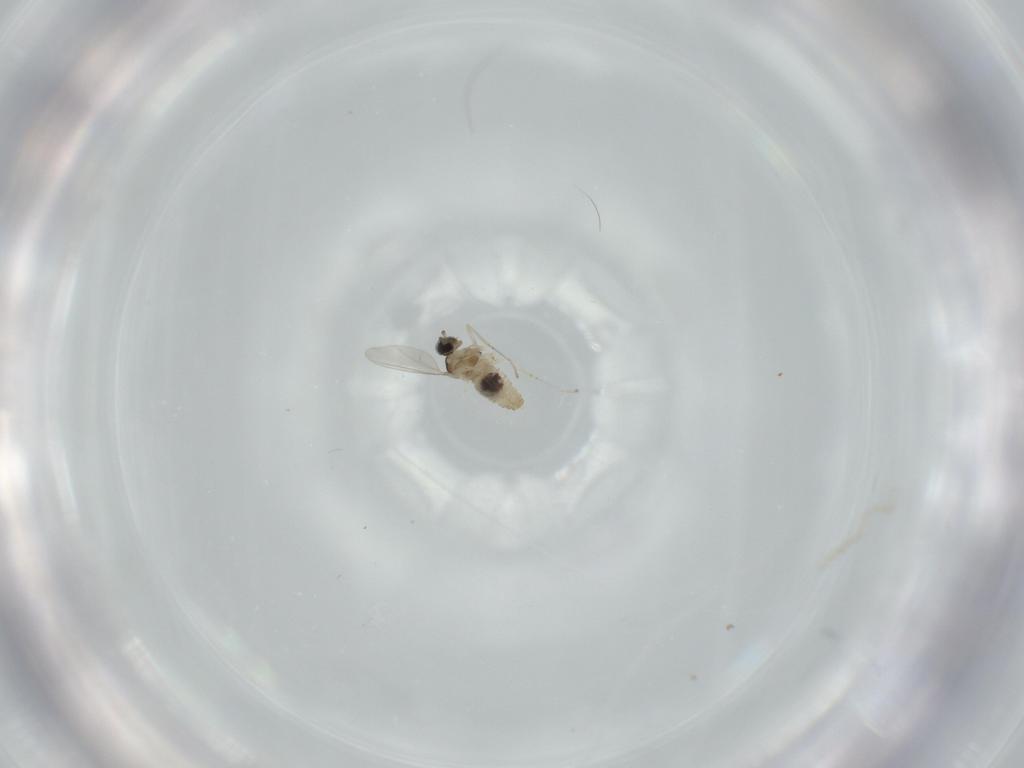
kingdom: Animalia
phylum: Arthropoda
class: Insecta
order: Diptera
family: Cecidomyiidae
